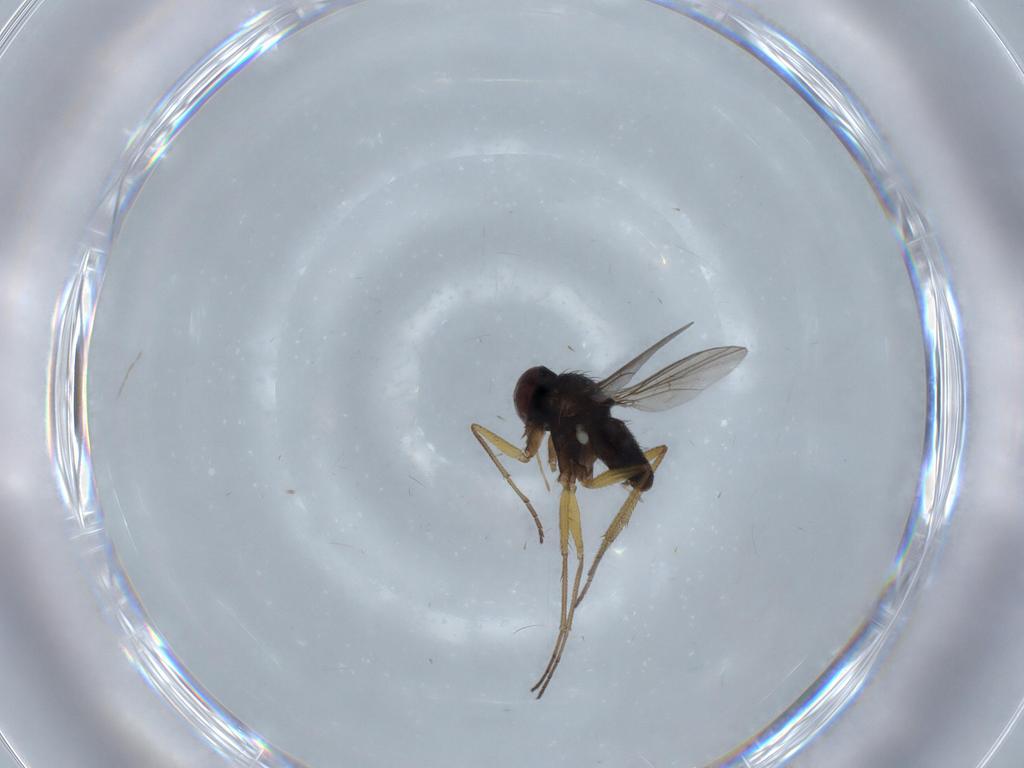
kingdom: Animalia
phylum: Arthropoda
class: Insecta
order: Diptera
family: Dolichopodidae
